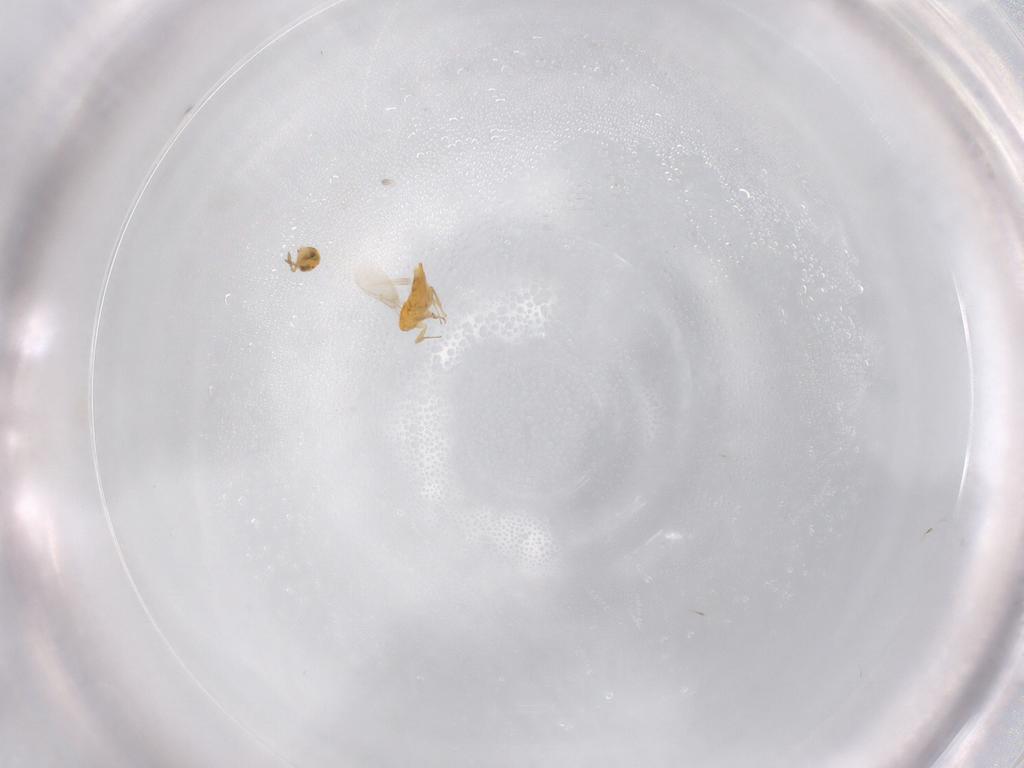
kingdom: Animalia
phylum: Arthropoda
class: Insecta
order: Hymenoptera
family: Aphelinidae
